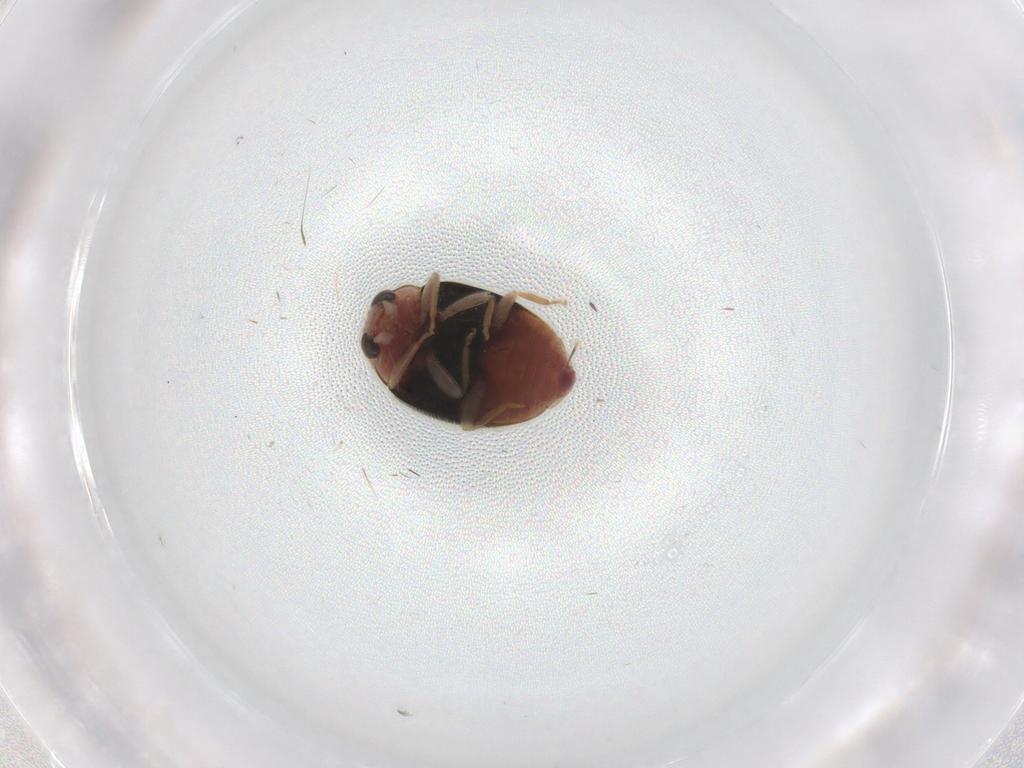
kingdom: Animalia
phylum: Arthropoda
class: Insecta
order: Coleoptera
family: Coccinellidae
